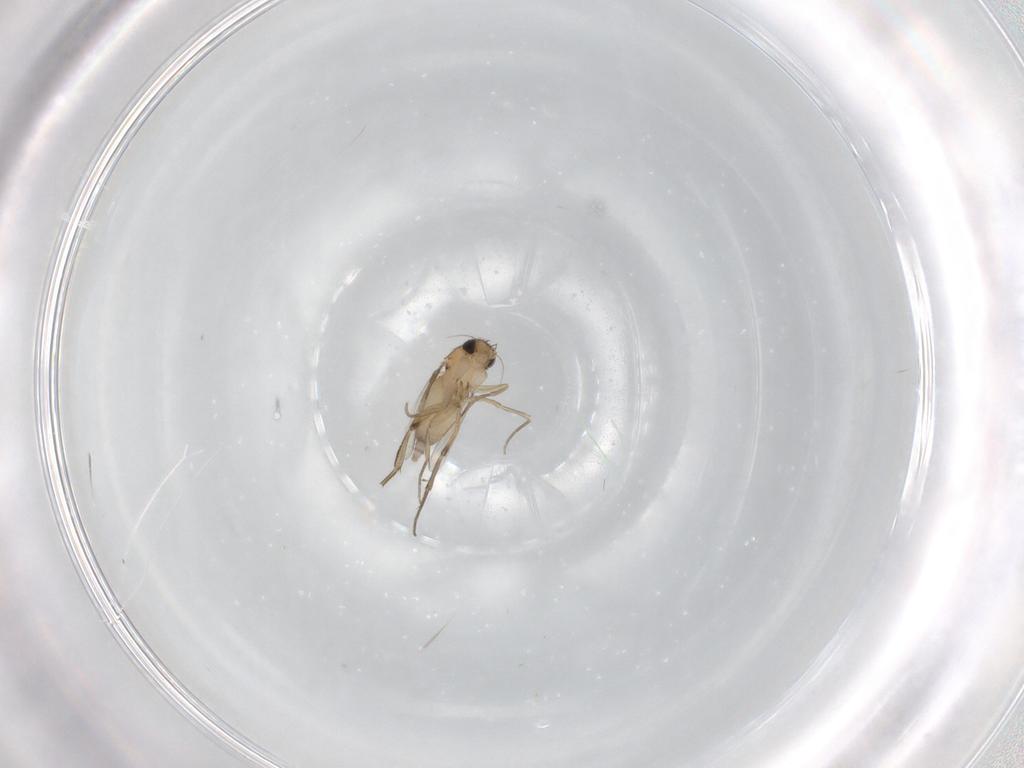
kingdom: Animalia
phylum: Arthropoda
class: Insecta
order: Diptera
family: Phoridae
